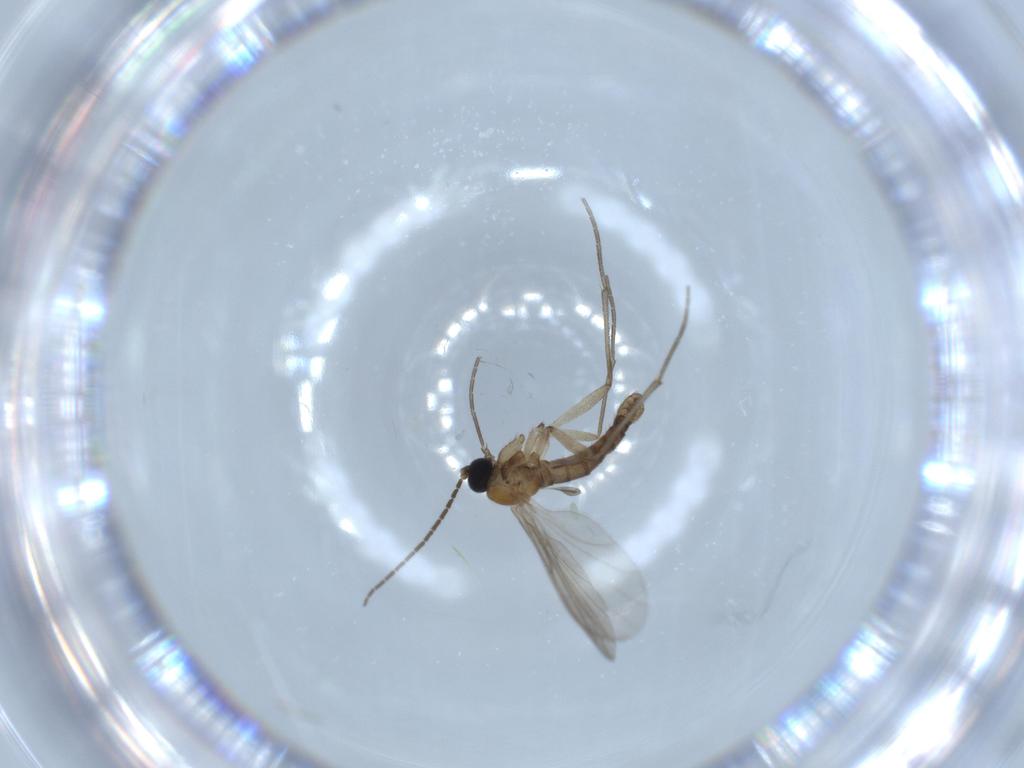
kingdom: Animalia
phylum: Arthropoda
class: Insecta
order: Diptera
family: Sciaridae
